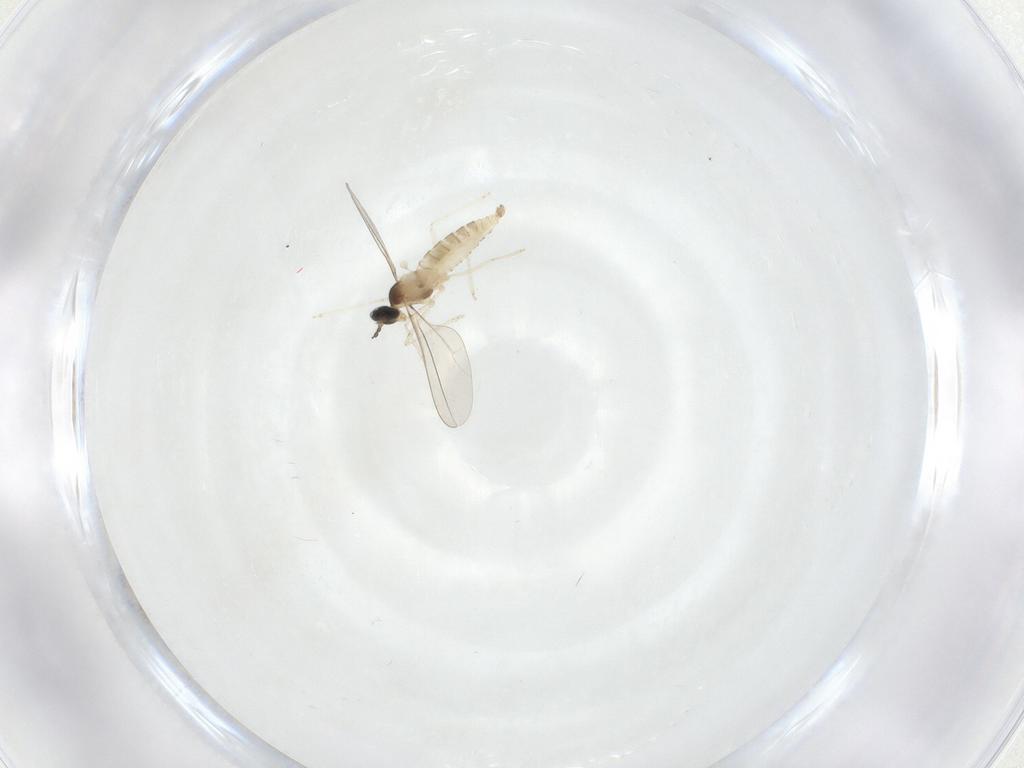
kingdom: Animalia
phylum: Arthropoda
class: Insecta
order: Diptera
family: Cecidomyiidae
